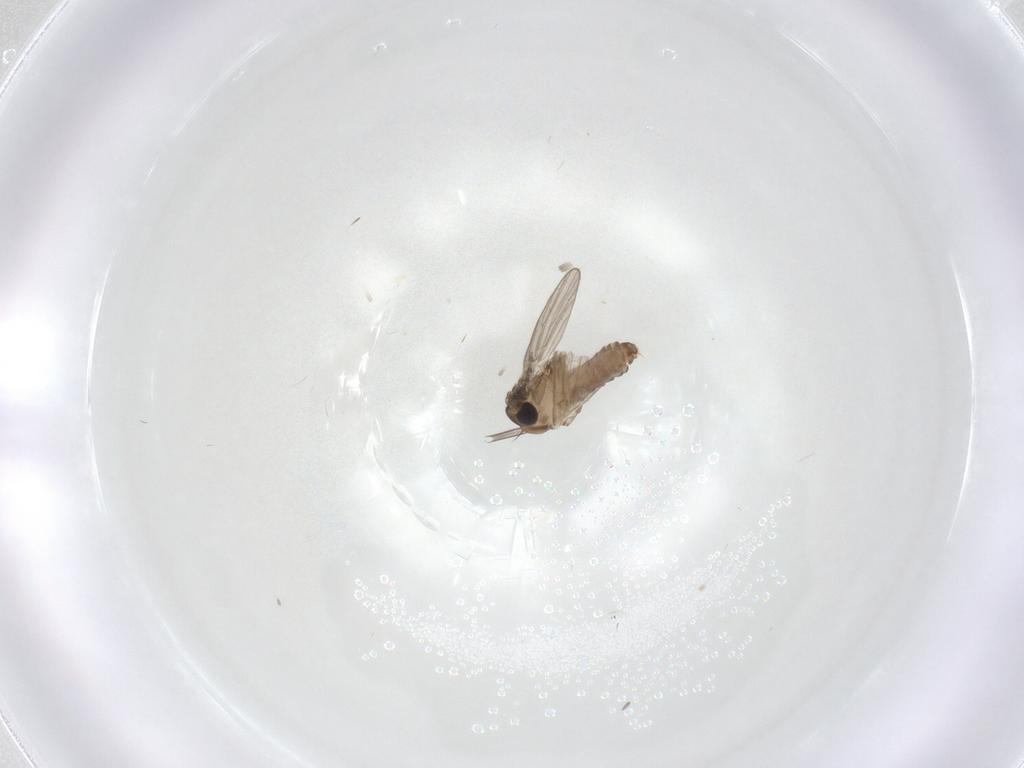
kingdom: Animalia
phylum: Arthropoda
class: Insecta
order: Diptera
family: Psychodidae
